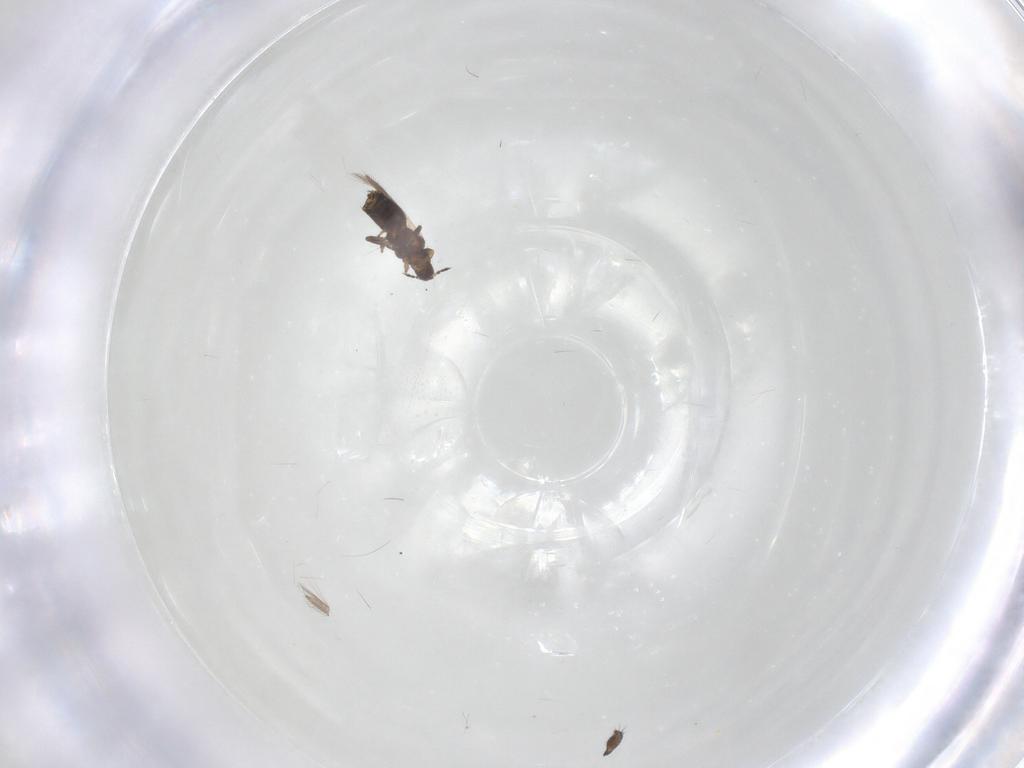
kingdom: Animalia
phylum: Arthropoda
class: Insecta
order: Thysanoptera
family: Thripidae
